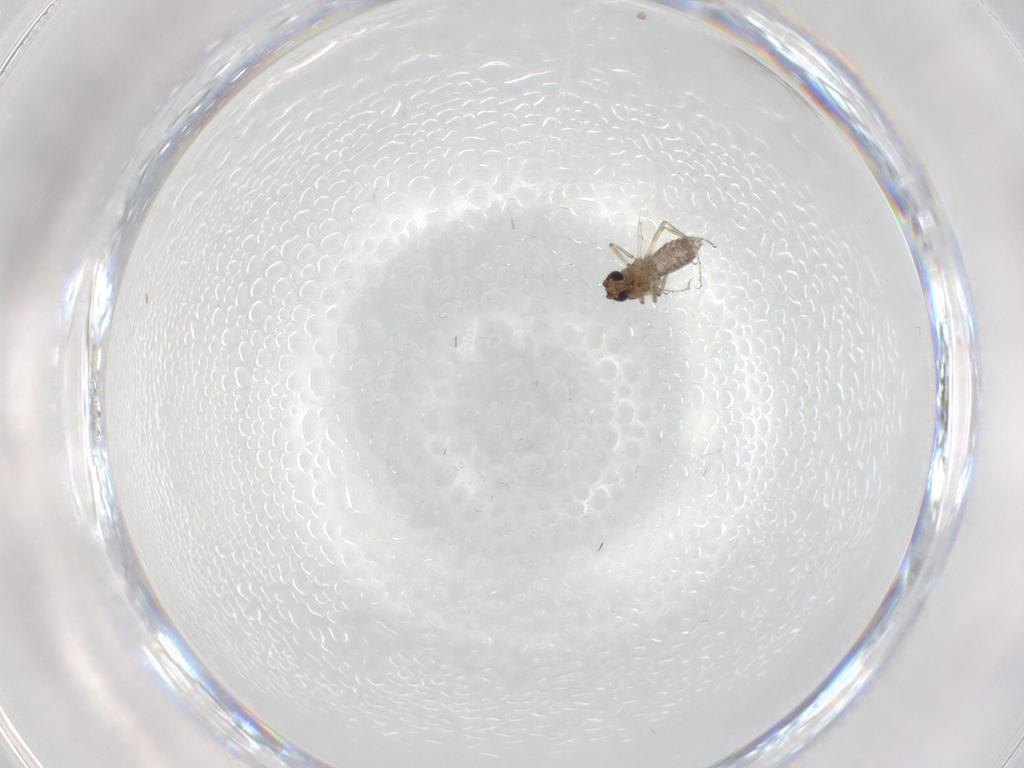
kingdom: Animalia
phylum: Arthropoda
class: Insecta
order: Diptera
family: Ceratopogonidae
